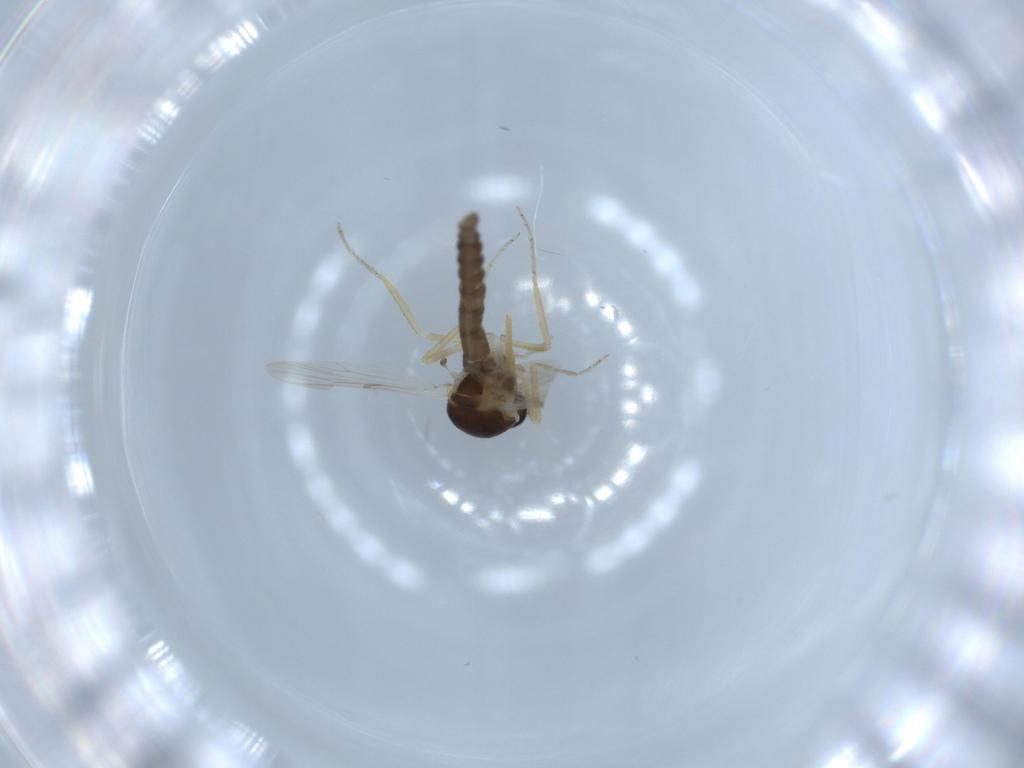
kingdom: Animalia
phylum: Arthropoda
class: Insecta
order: Diptera
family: Ceratopogonidae
